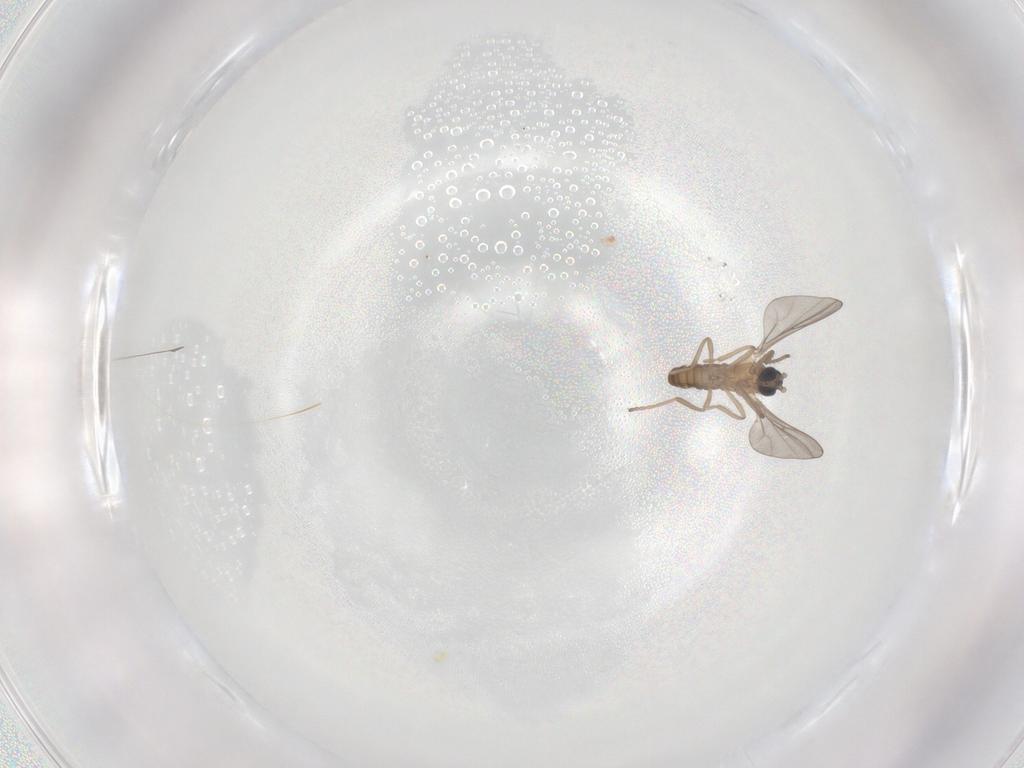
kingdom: Animalia
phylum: Arthropoda
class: Insecta
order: Diptera
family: Cecidomyiidae
